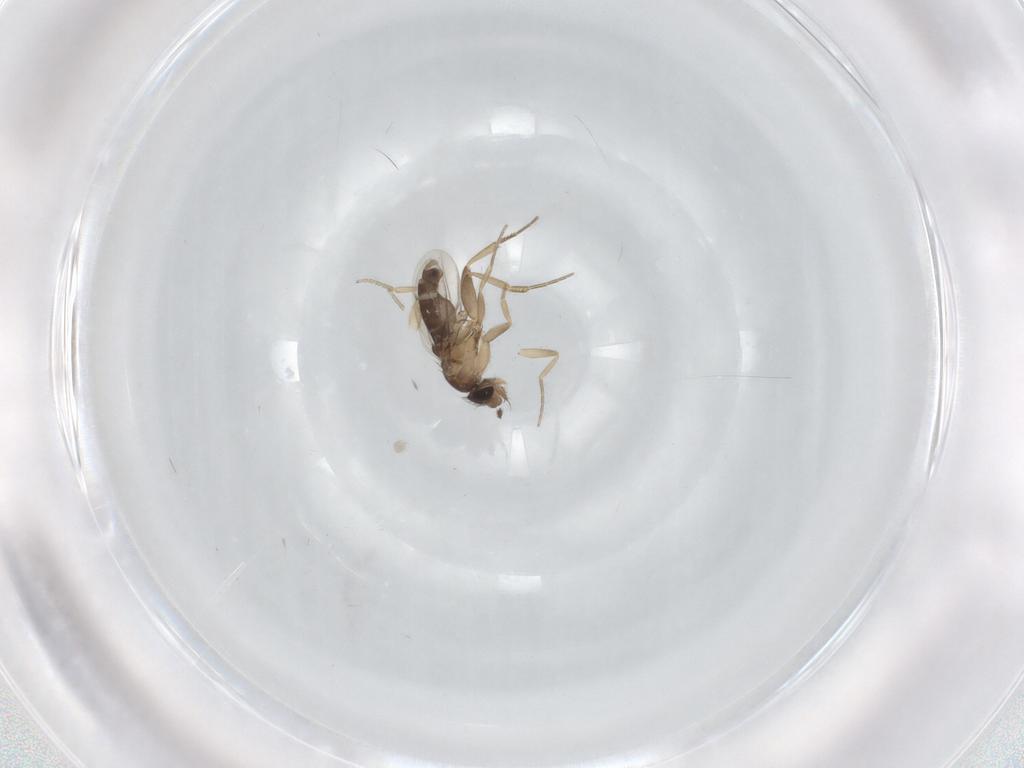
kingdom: Animalia
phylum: Arthropoda
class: Insecta
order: Diptera
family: Phoridae
